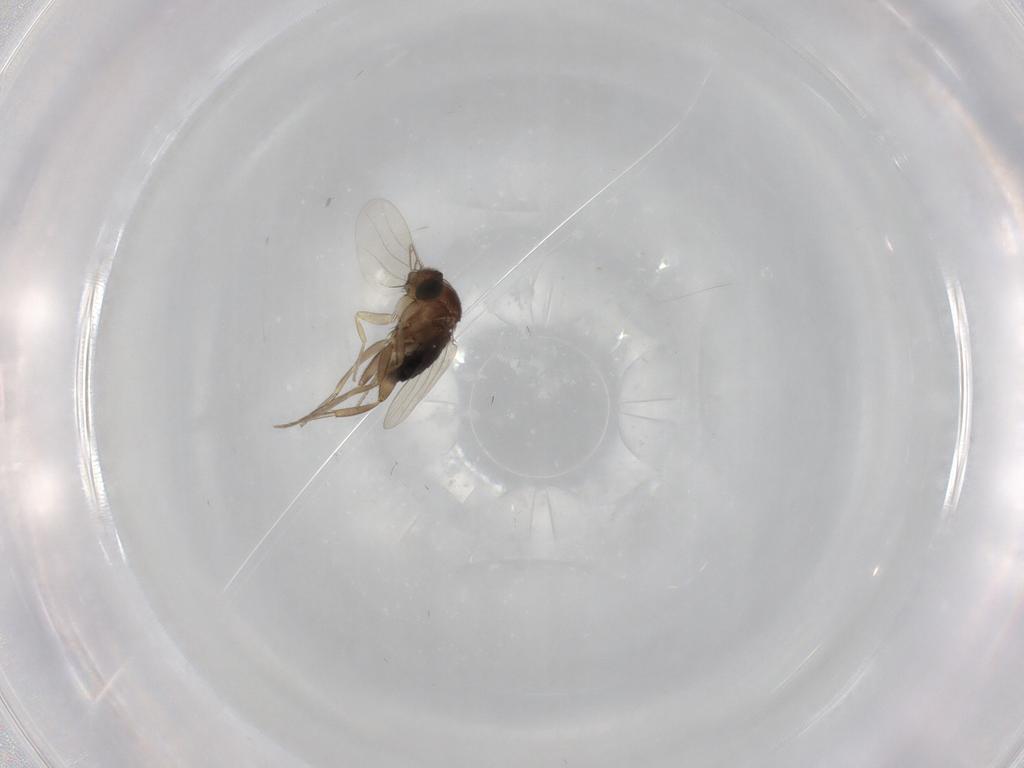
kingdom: Animalia
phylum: Arthropoda
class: Insecta
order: Diptera
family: Phoridae
